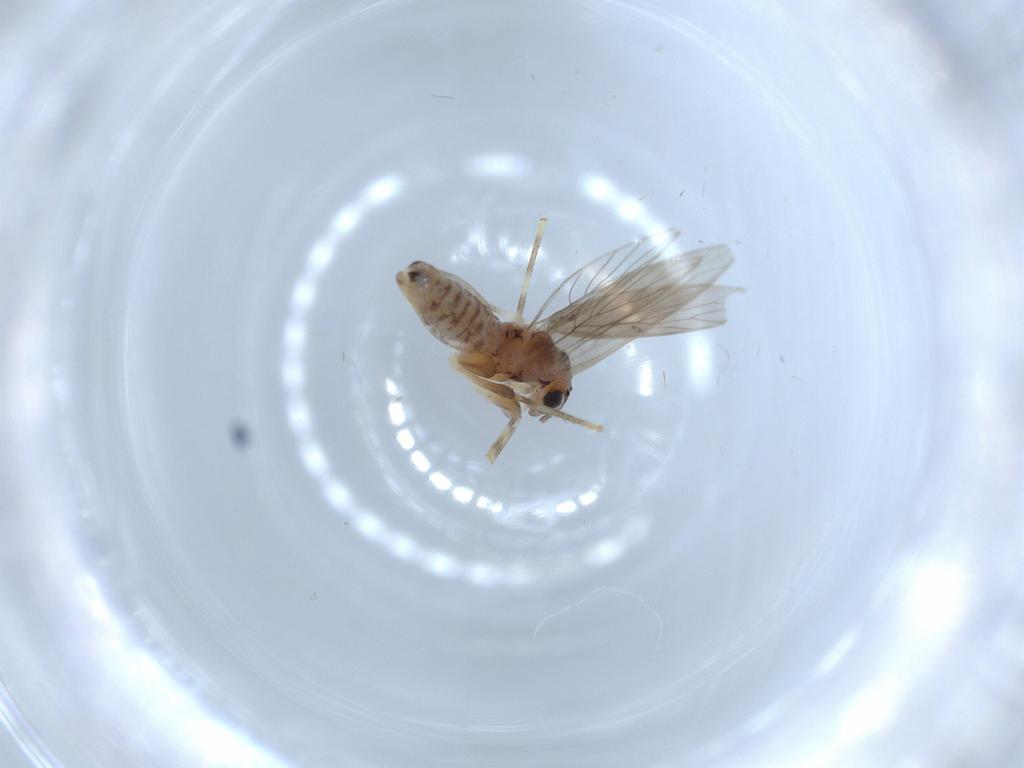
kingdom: Animalia
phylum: Arthropoda
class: Insecta
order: Psocodea
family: Lepidopsocidae
